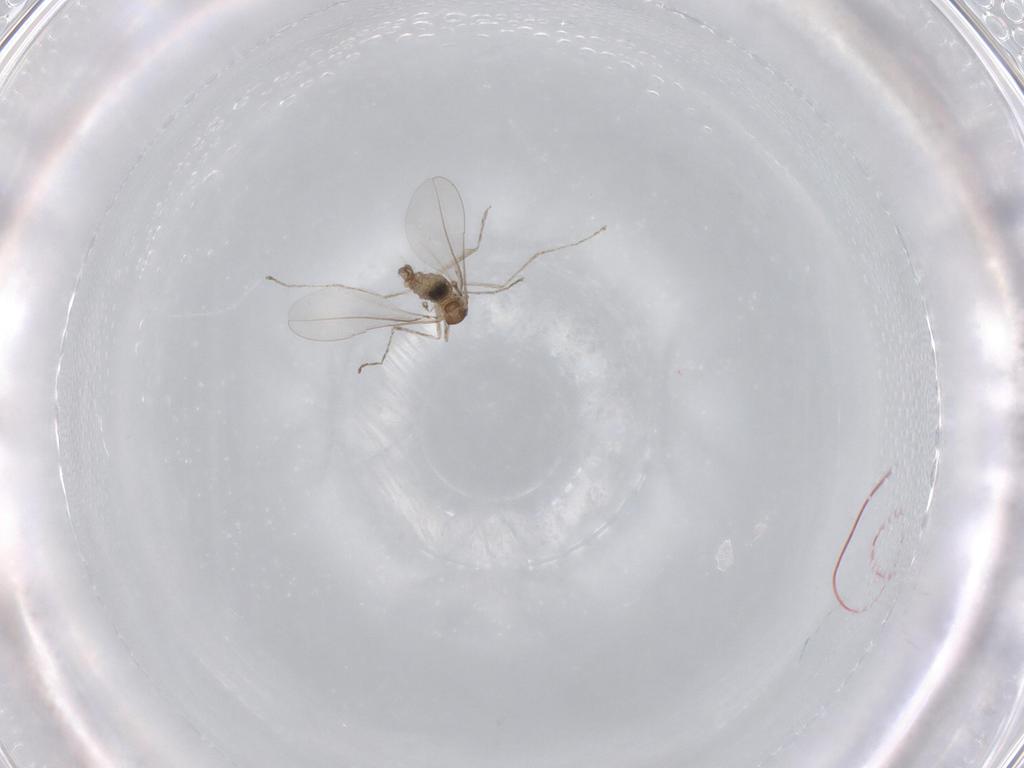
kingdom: Animalia
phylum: Arthropoda
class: Insecta
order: Diptera
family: Cecidomyiidae
